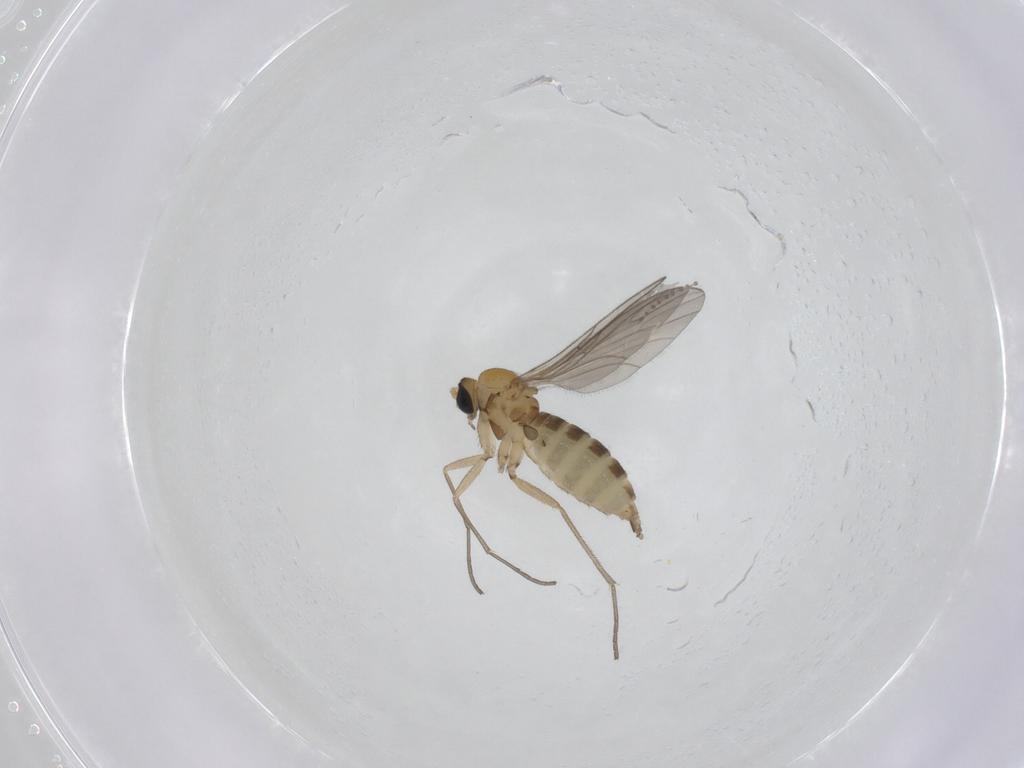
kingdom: Animalia
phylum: Arthropoda
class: Insecta
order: Diptera
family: Sciaridae
